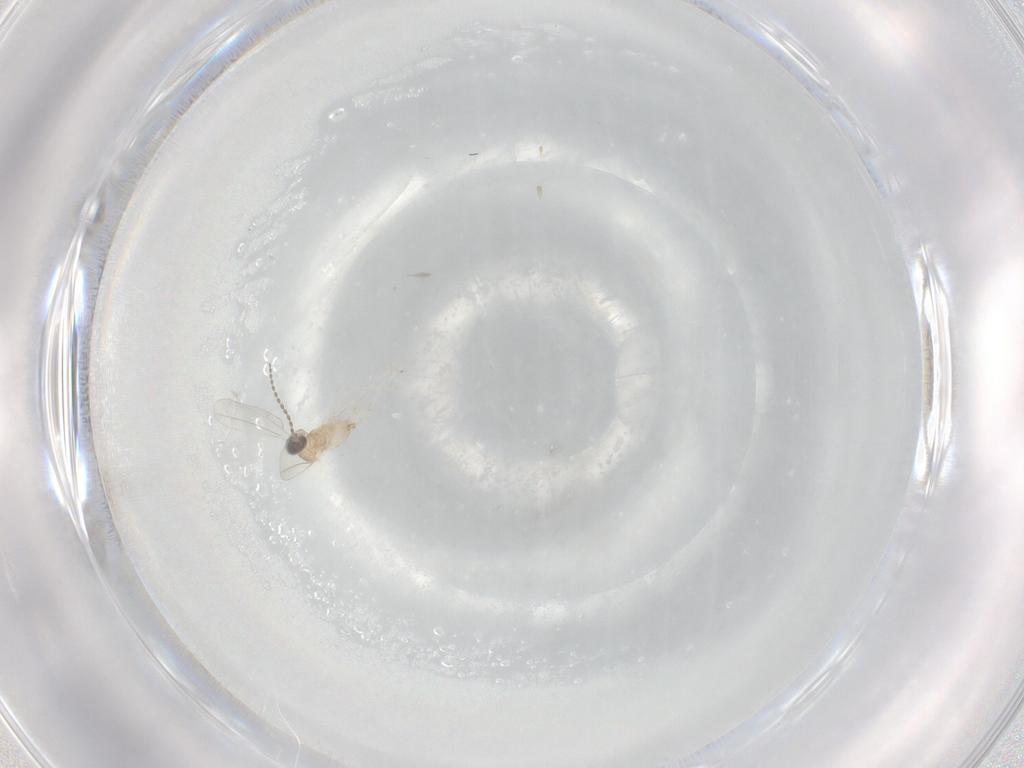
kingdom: Animalia
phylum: Arthropoda
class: Insecta
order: Diptera
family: Cecidomyiidae
